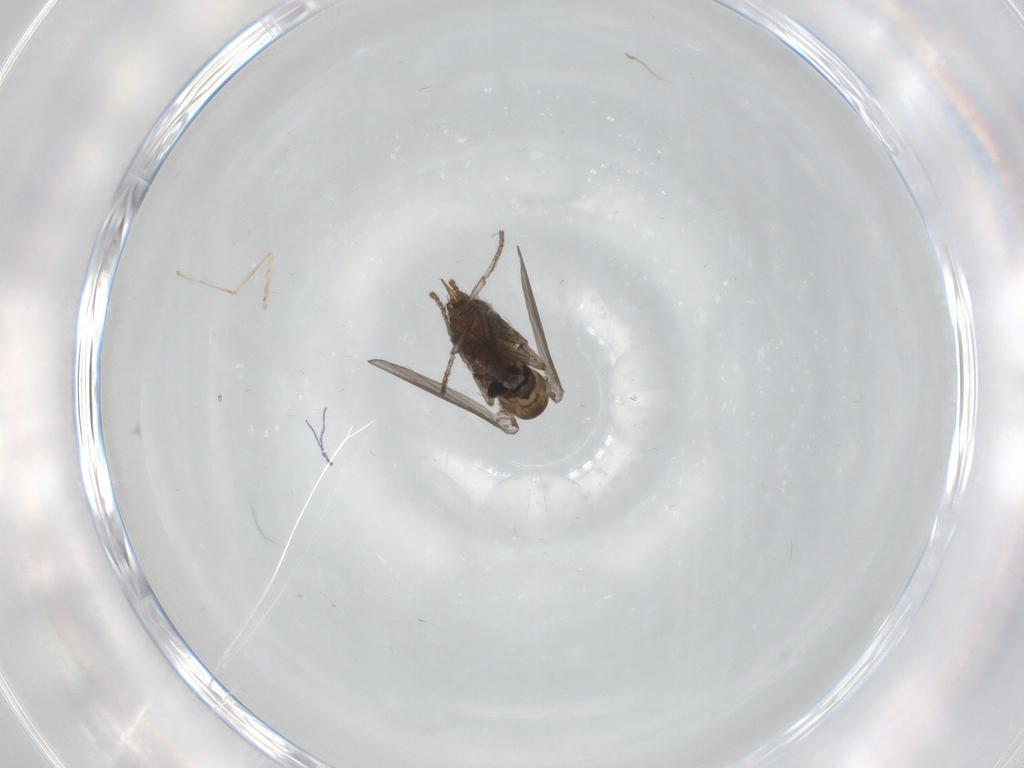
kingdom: Animalia
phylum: Arthropoda
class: Insecta
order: Diptera
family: Psychodidae
